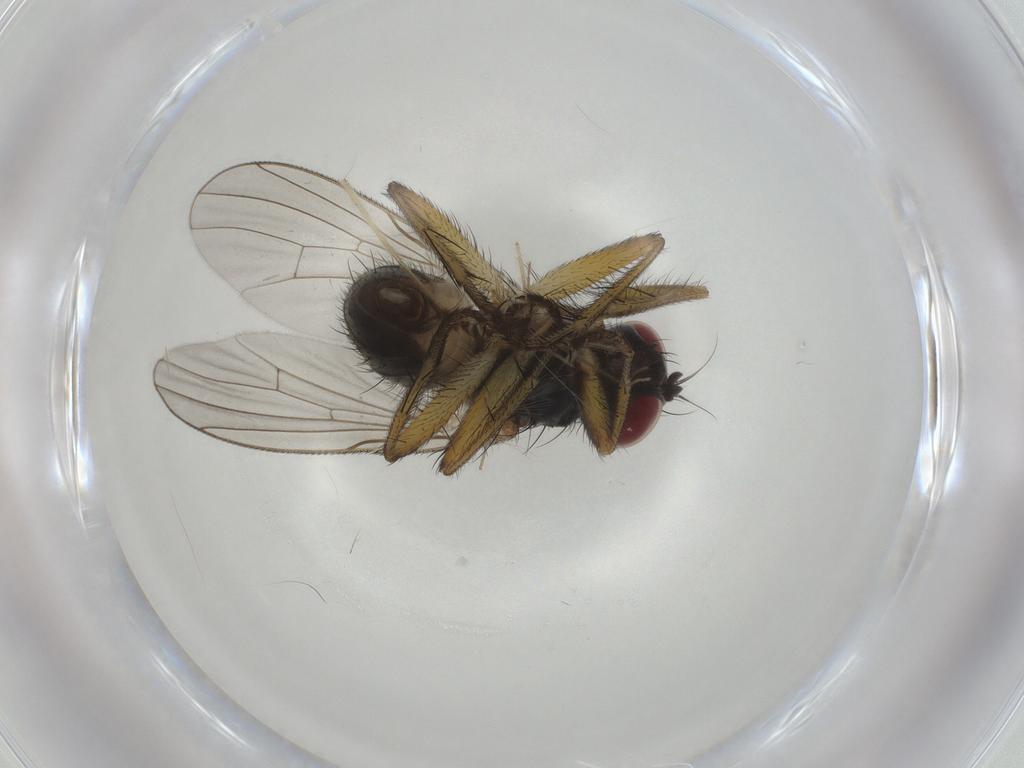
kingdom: Animalia
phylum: Arthropoda
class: Insecta
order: Diptera
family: Muscidae
